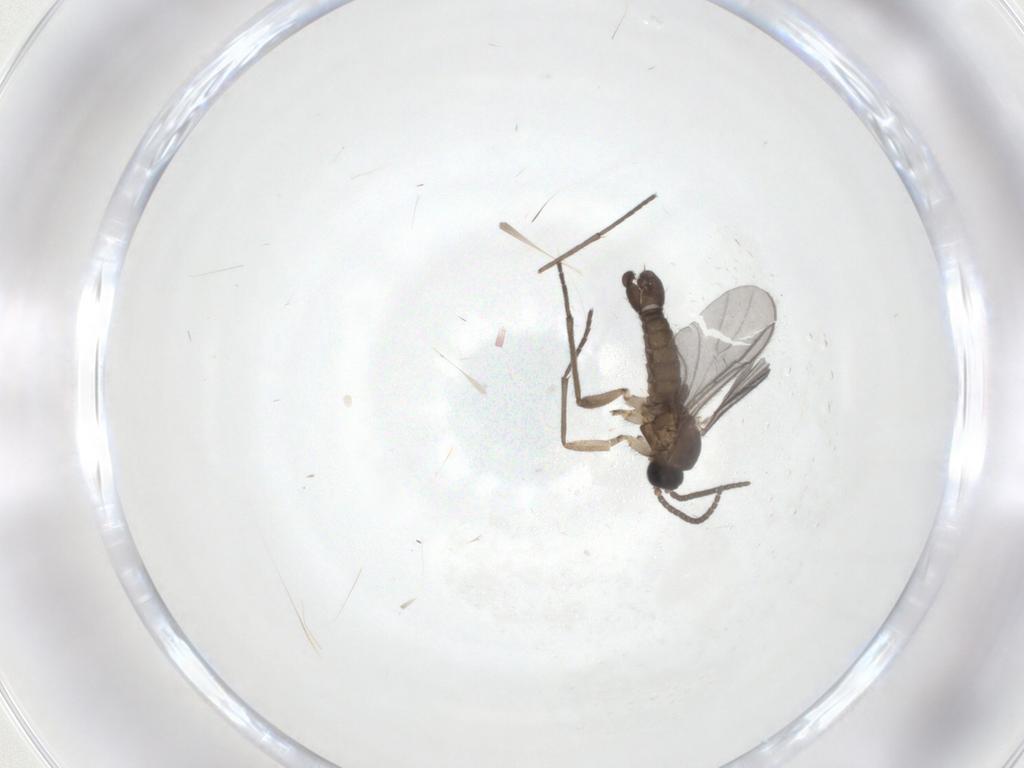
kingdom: Animalia
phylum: Arthropoda
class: Insecta
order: Diptera
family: Sciaridae
